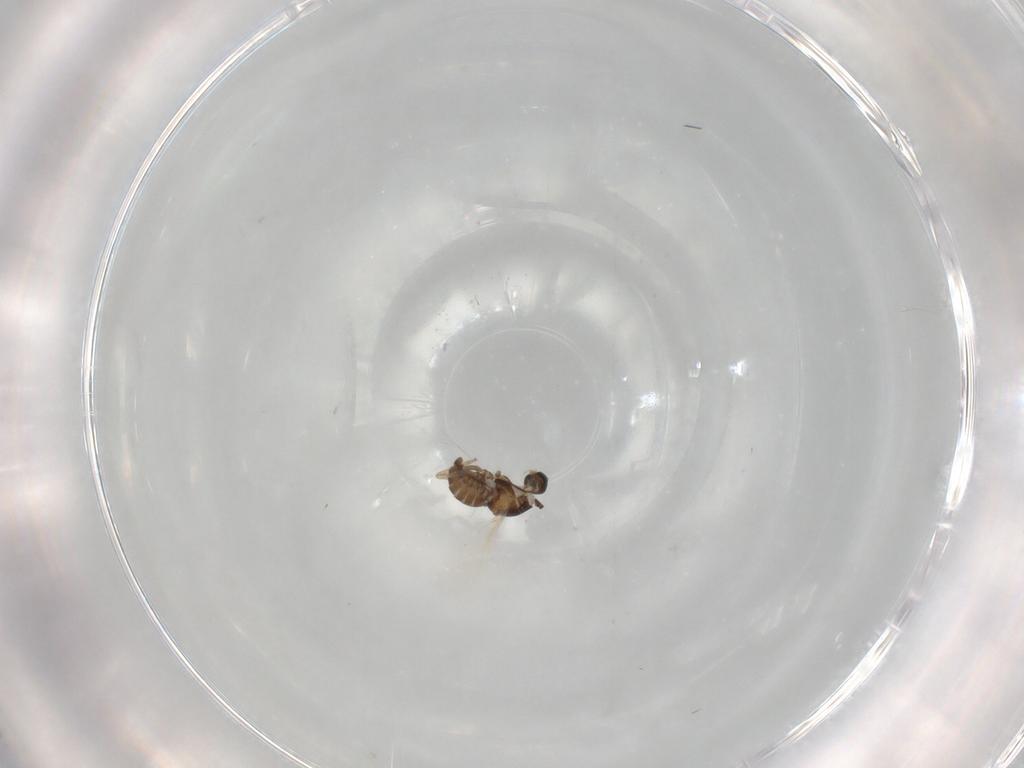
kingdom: Animalia
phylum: Arthropoda
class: Insecta
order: Diptera
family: Cecidomyiidae
